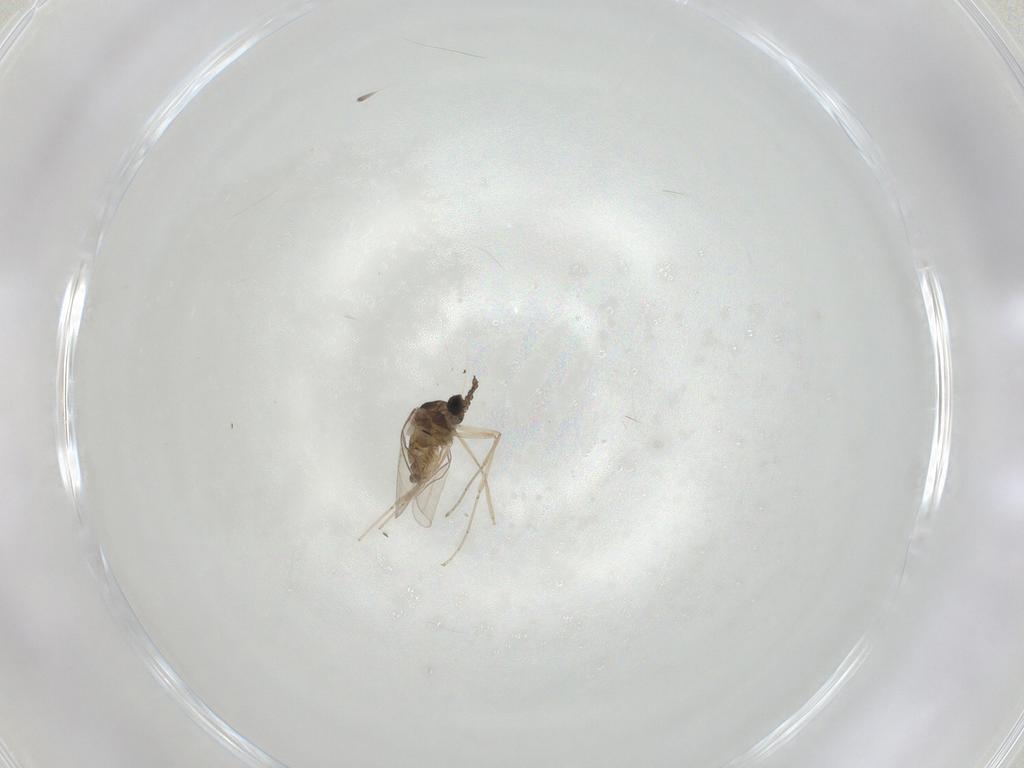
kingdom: Animalia
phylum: Arthropoda
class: Insecta
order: Diptera
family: Cecidomyiidae
